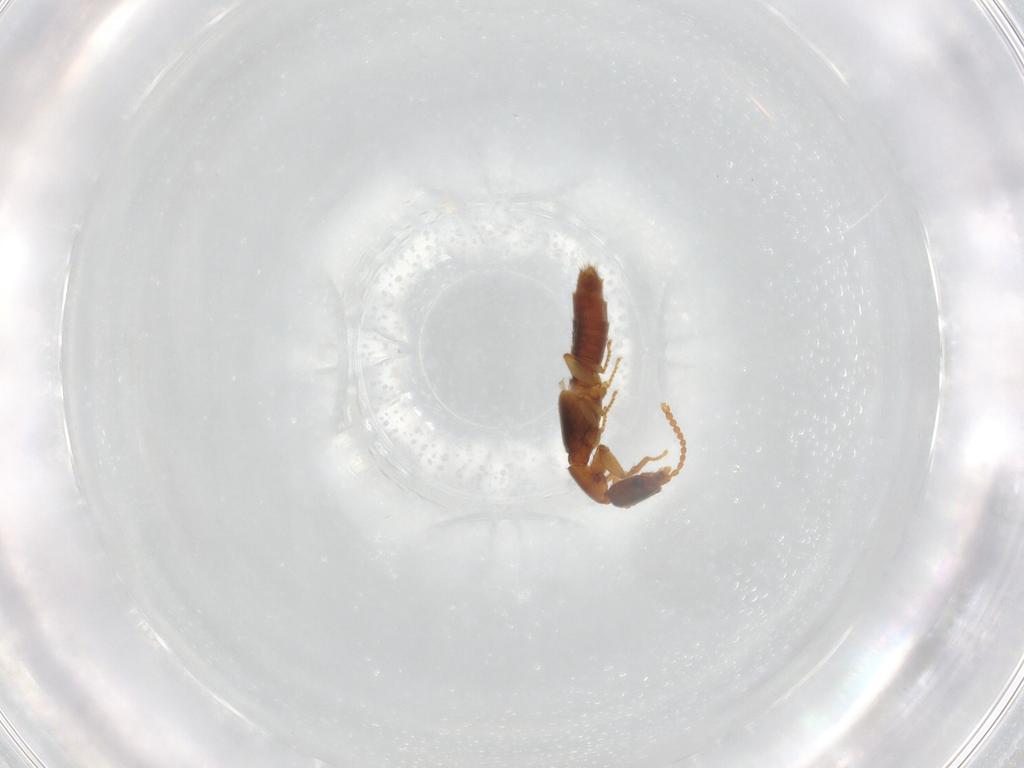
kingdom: Animalia
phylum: Arthropoda
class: Insecta
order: Coleoptera
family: Staphylinidae
